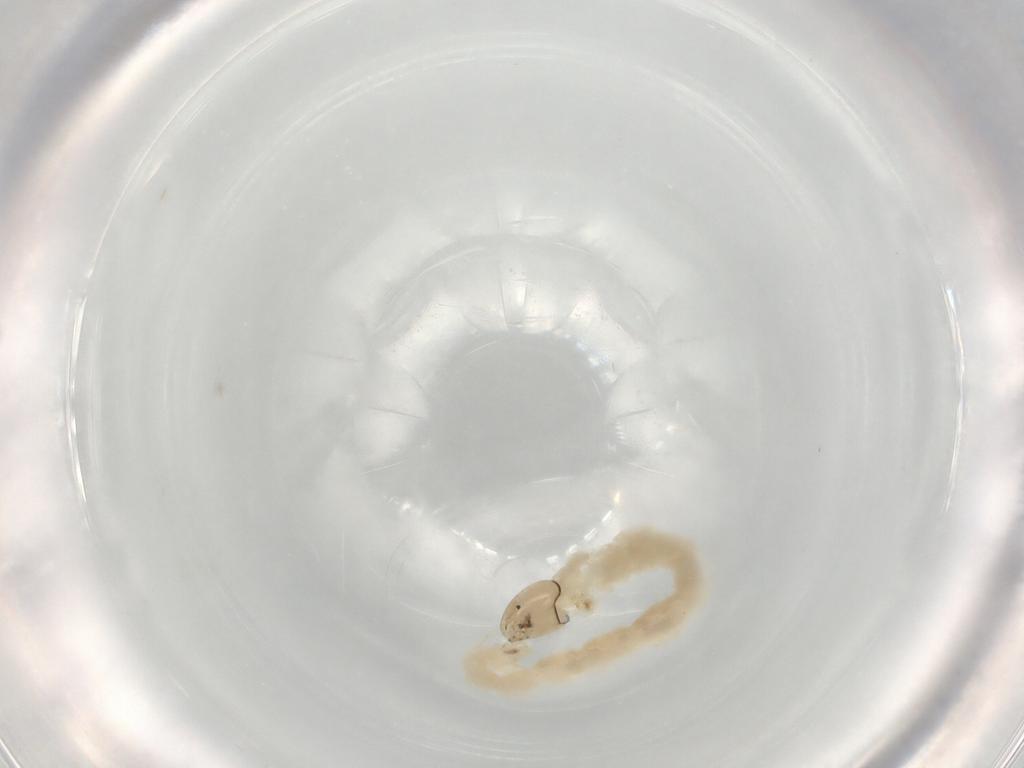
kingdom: Animalia
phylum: Arthropoda
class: Insecta
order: Diptera
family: Chironomidae
